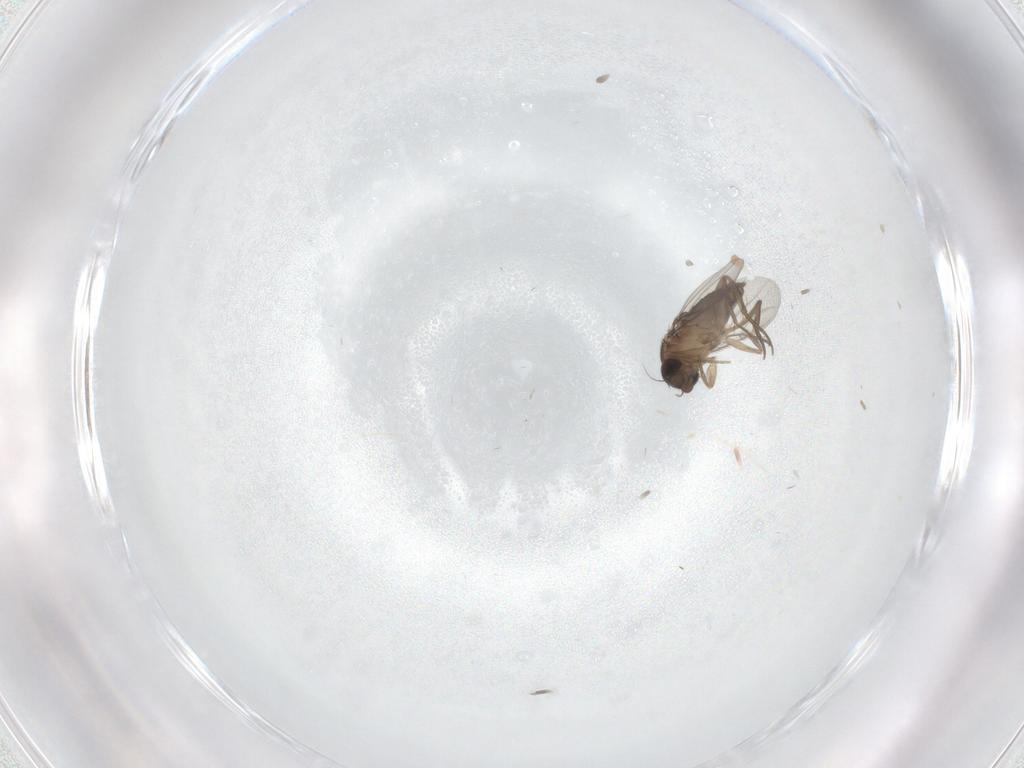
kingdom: Animalia
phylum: Arthropoda
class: Insecta
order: Diptera
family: Phoridae
